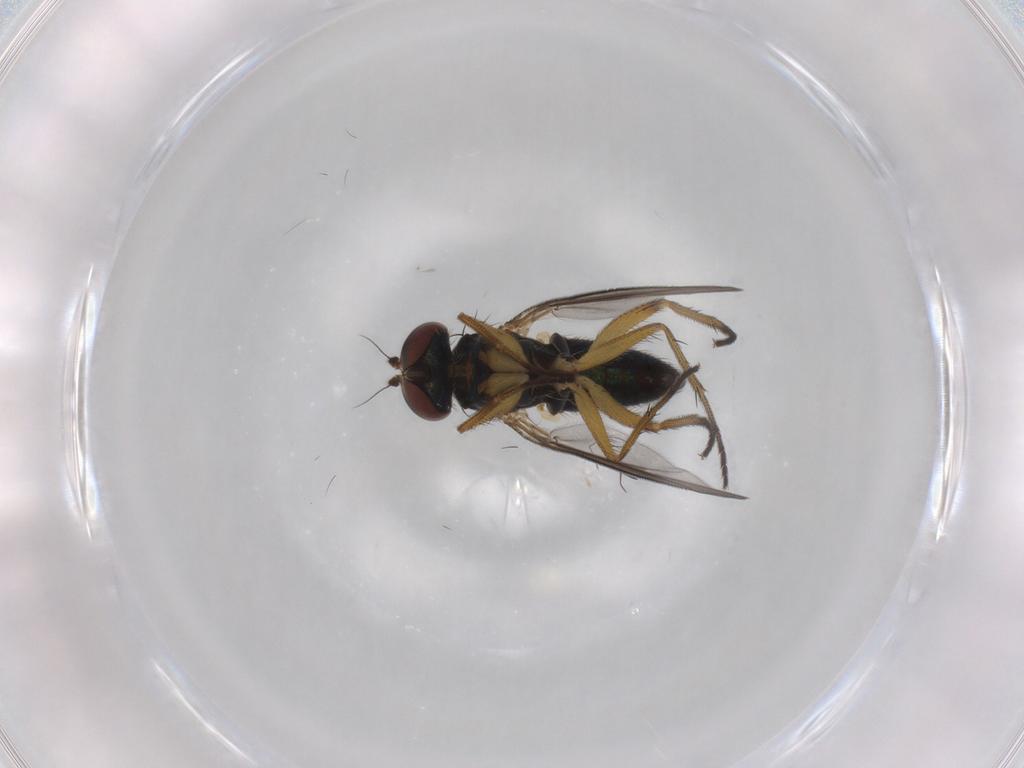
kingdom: Animalia
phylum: Arthropoda
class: Insecta
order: Diptera
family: Dolichopodidae
